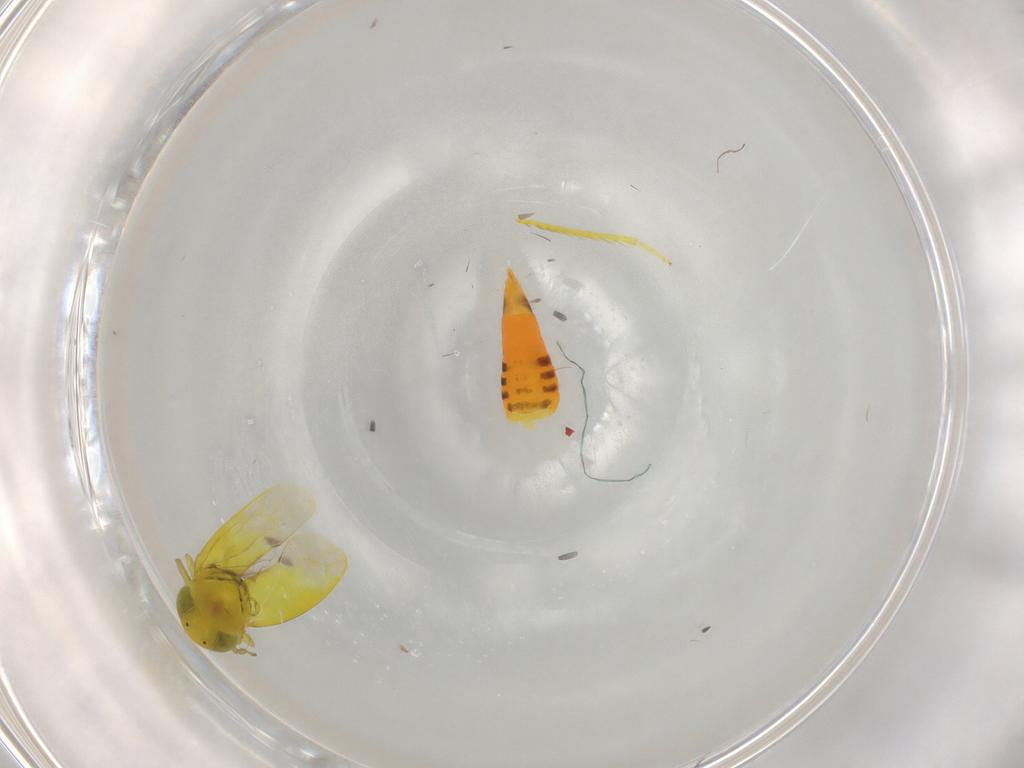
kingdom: Animalia
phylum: Arthropoda
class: Insecta
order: Hemiptera
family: Cicadellidae
